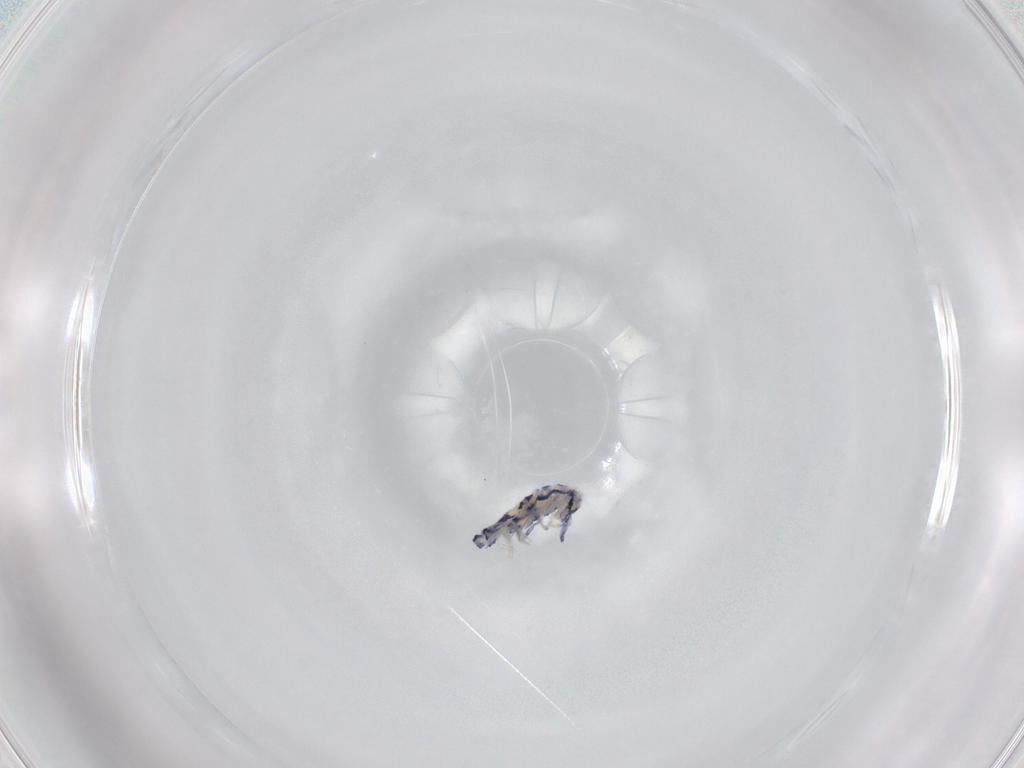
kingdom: Animalia
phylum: Arthropoda
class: Collembola
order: Entomobryomorpha
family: Entomobryidae
